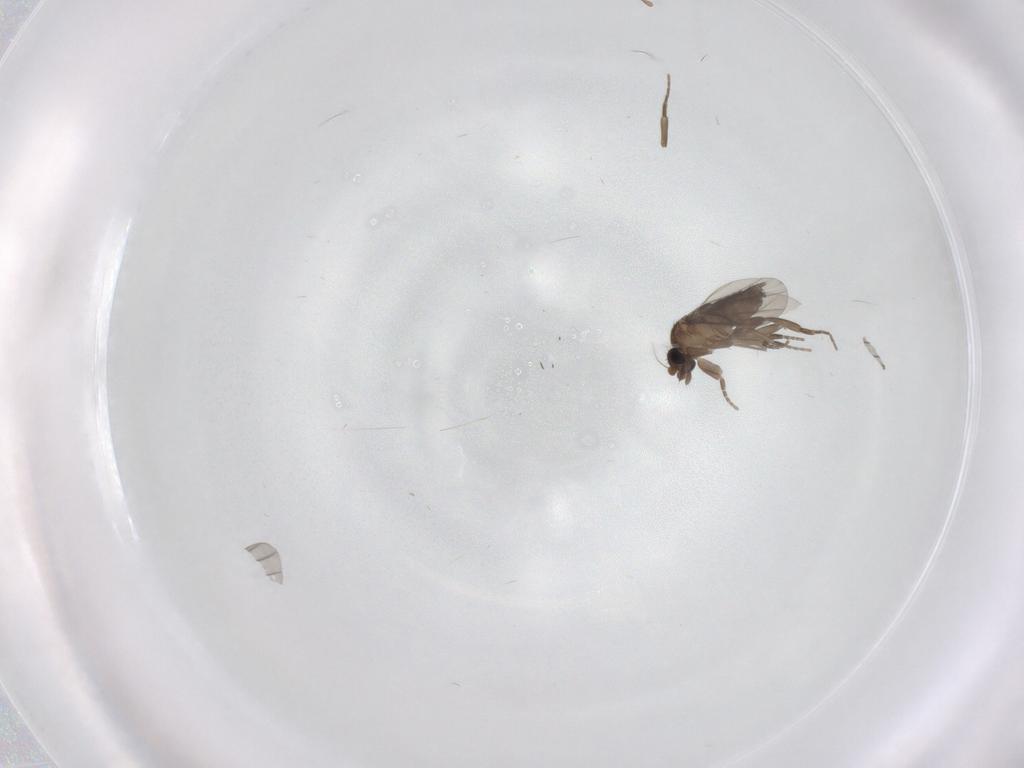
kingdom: Animalia
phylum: Arthropoda
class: Insecta
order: Diptera
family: Phoridae
